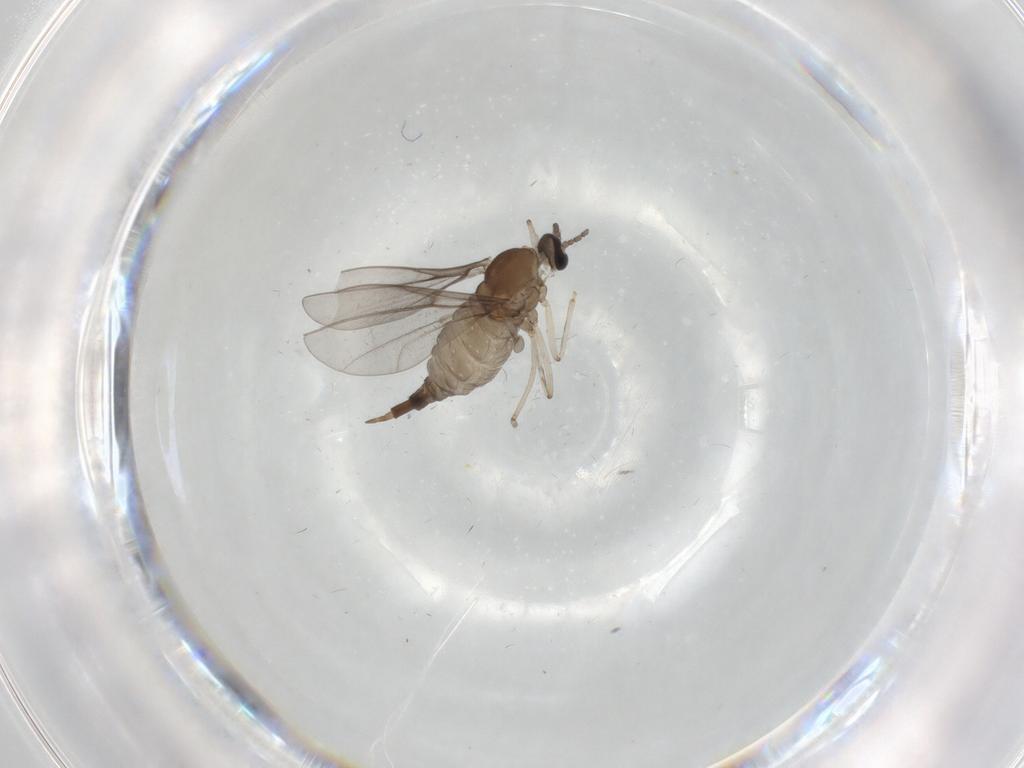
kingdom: Animalia
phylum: Arthropoda
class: Insecta
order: Diptera
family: Cecidomyiidae
